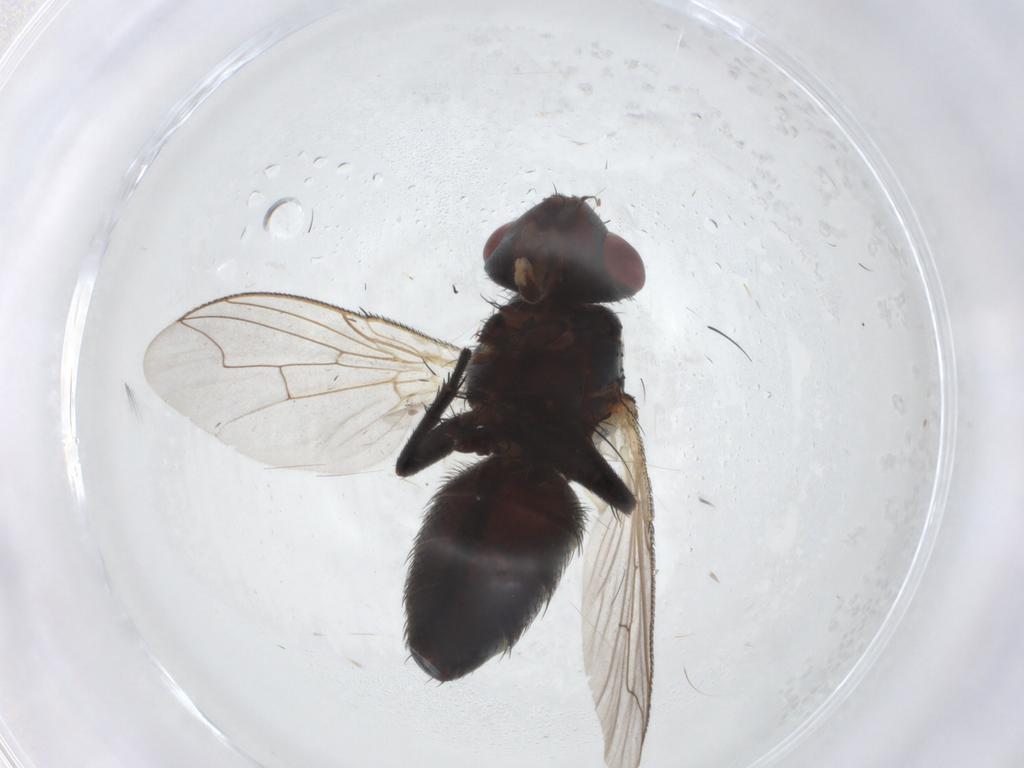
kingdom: Animalia
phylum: Arthropoda
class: Insecta
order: Diptera
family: Sarcophagidae
